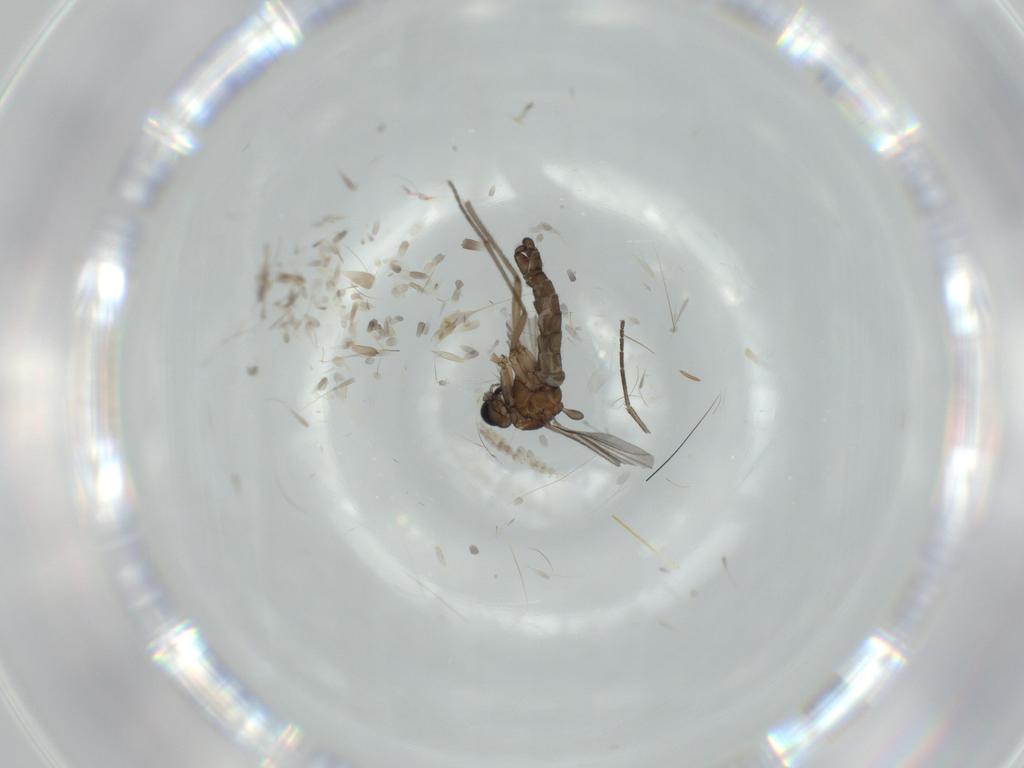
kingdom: Animalia
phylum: Arthropoda
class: Insecta
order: Diptera
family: Sciaridae
